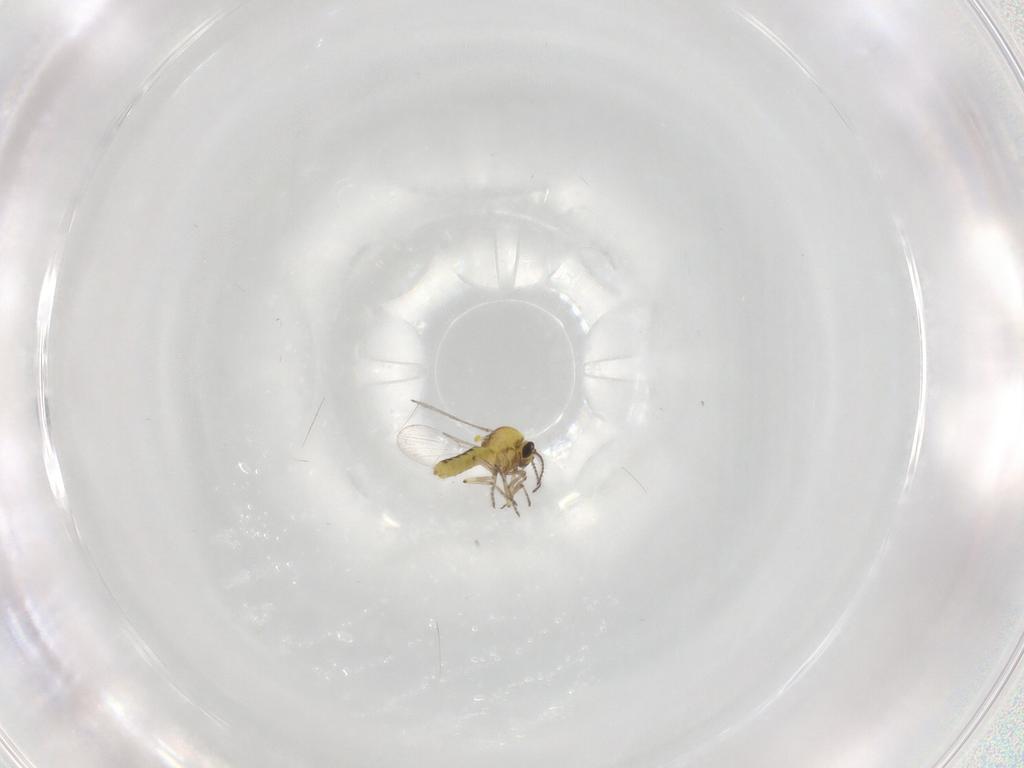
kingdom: Animalia
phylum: Arthropoda
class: Insecta
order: Diptera
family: Ceratopogonidae
